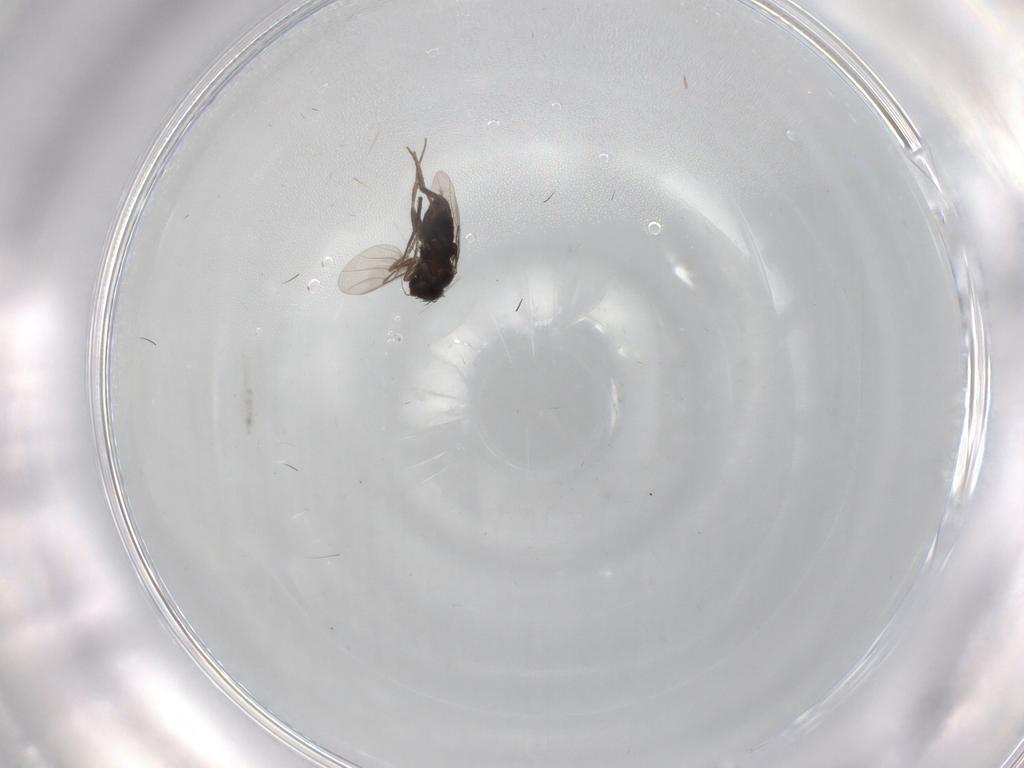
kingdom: Animalia
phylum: Arthropoda
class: Insecta
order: Diptera
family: Phoridae
